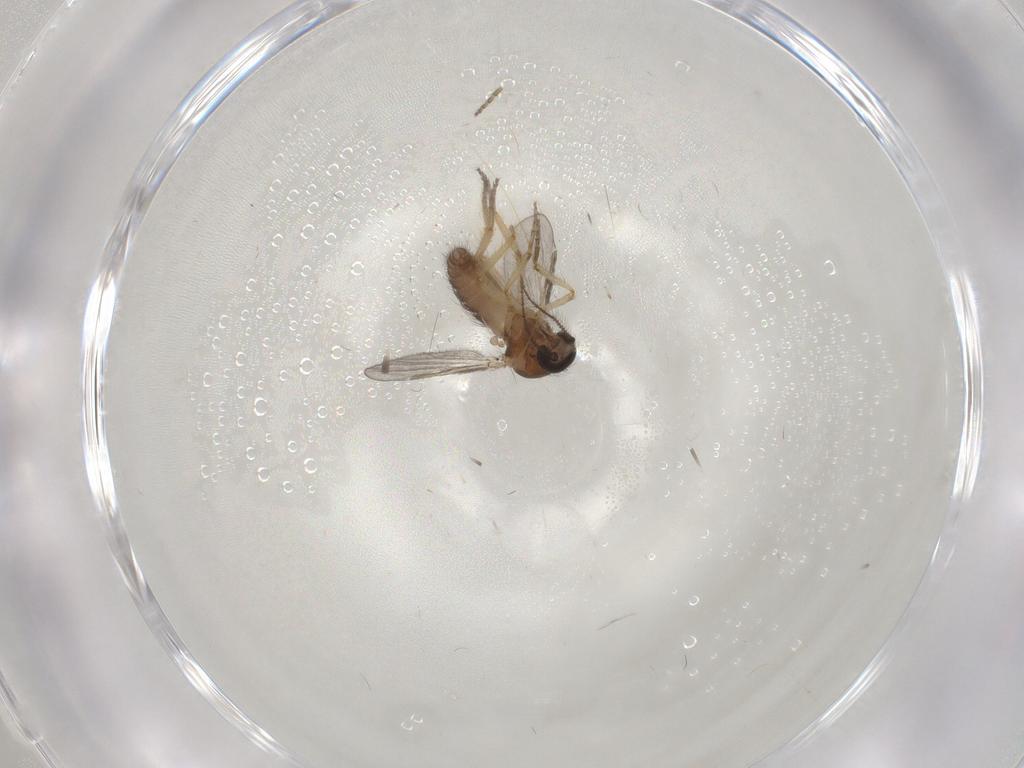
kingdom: Animalia
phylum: Arthropoda
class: Insecta
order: Diptera
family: Ceratopogonidae
